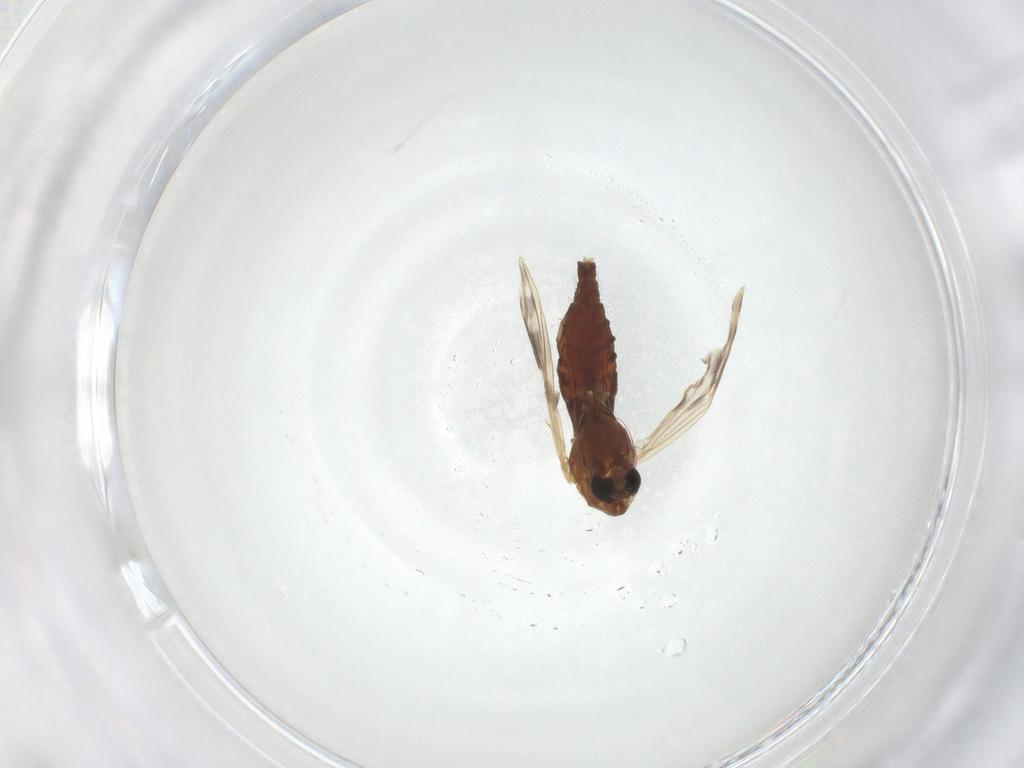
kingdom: Animalia
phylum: Arthropoda
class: Insecta
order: Diptera
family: Chironomidae
